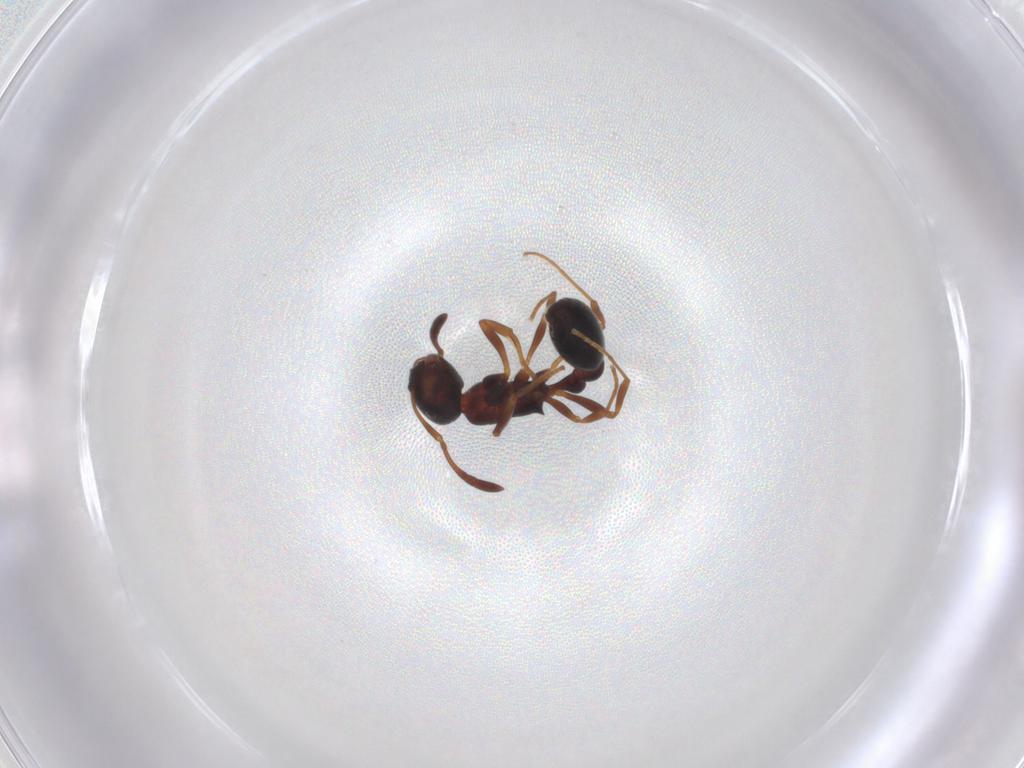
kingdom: Animalia
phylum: Arthropoda
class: Insecta
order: Hymenoptera
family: Formicidae
